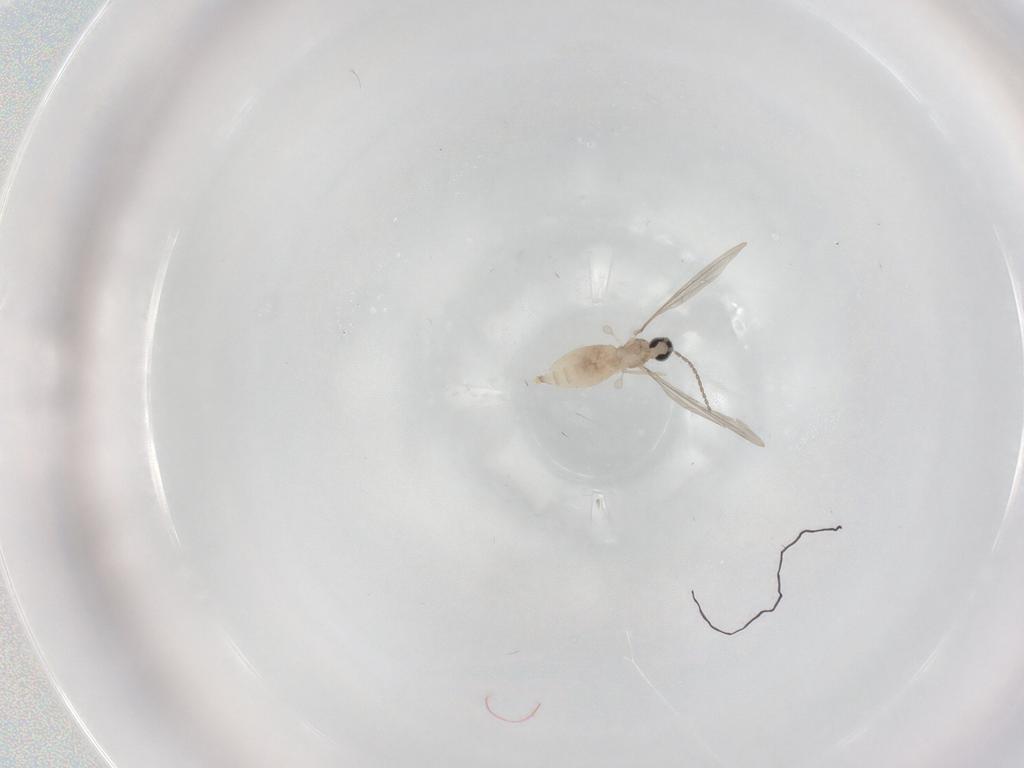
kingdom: Animalia
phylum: Arthropoda
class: Insecta
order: Diptera
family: Cecidomyiidae
